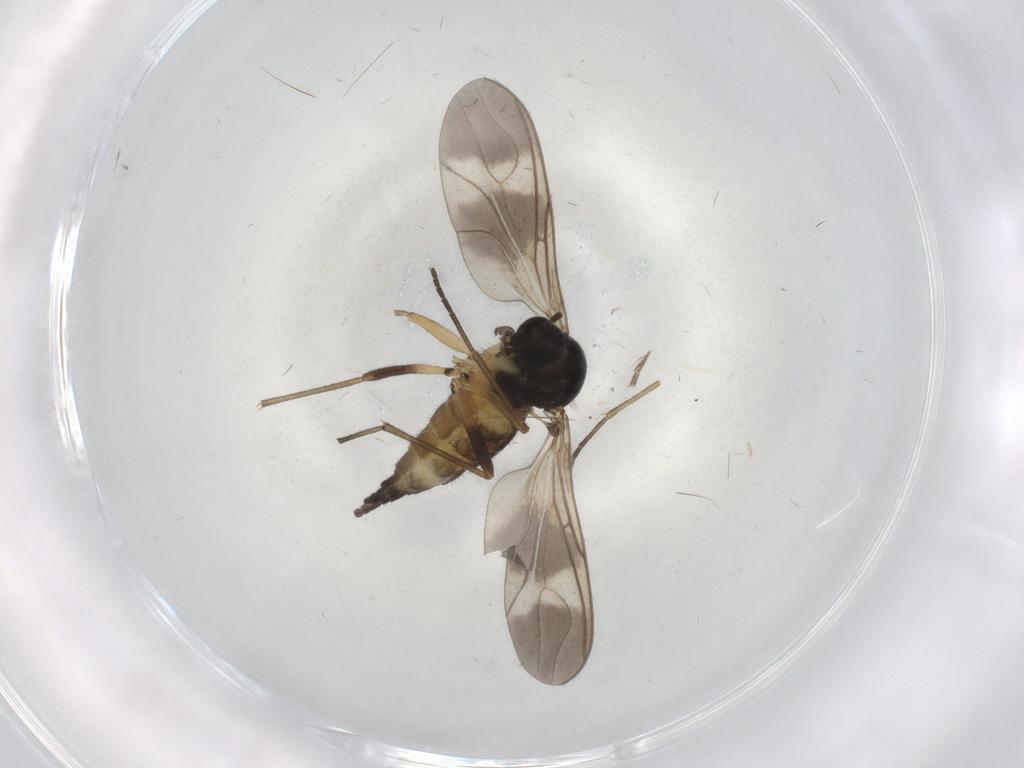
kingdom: Animalia
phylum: Arthropoda
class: Insecta
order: Diptera
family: Sciaridae
